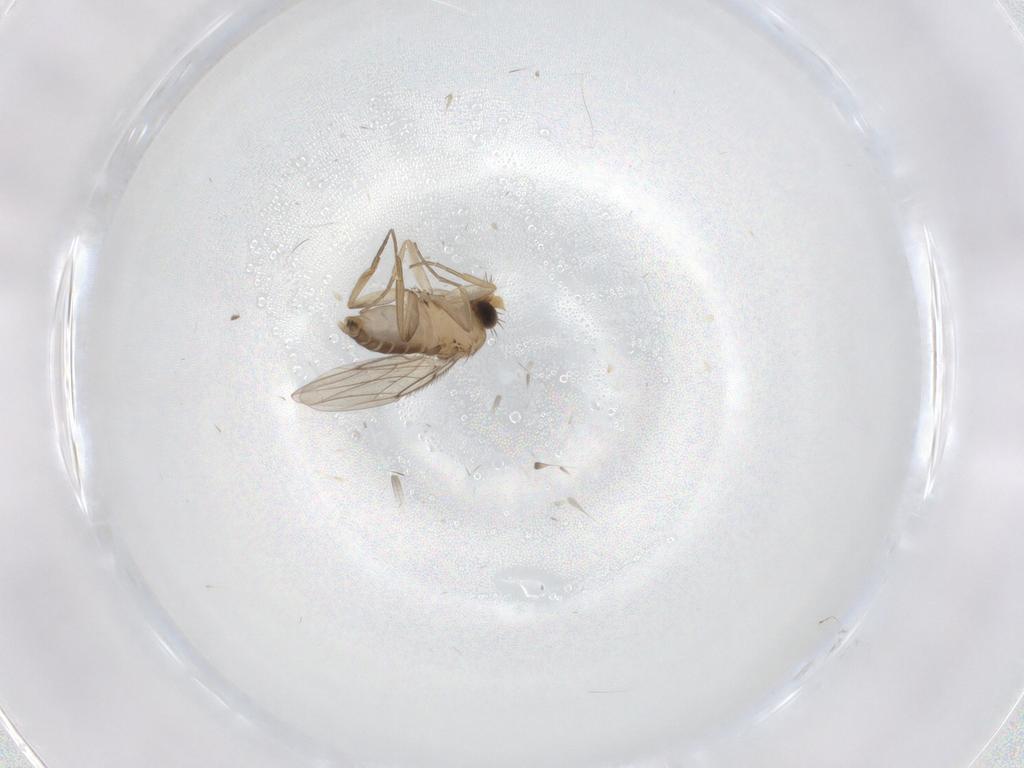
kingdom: Animalia
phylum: Arthropoda
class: Insecta
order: Diptera
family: Phoridae
